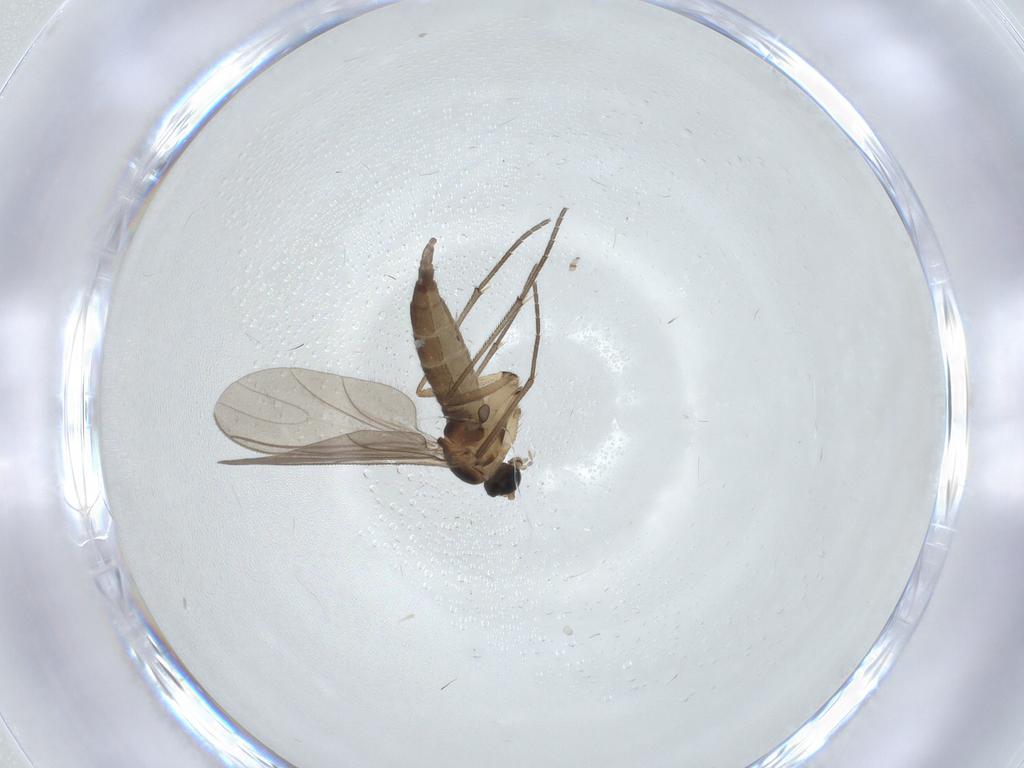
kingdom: Animalia
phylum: Arthropoda
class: Insecta
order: Diptera
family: Sciaridae
